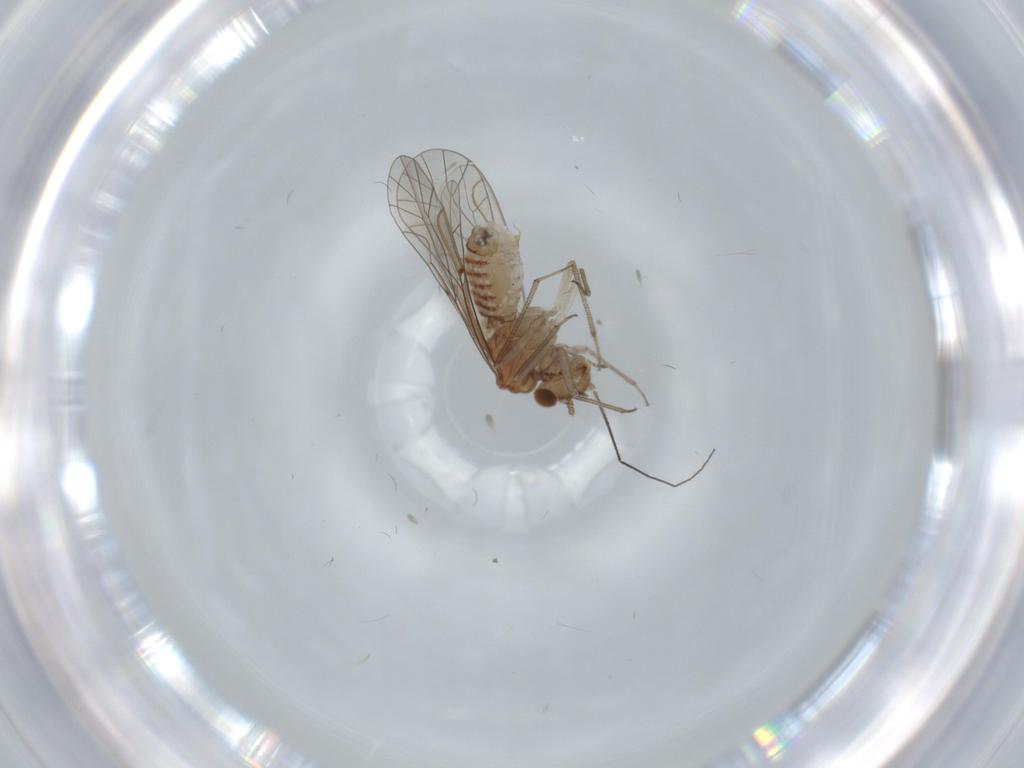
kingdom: Animalia
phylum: Arthropoda
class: Insecta
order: Psocodea
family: Lachesillidae
